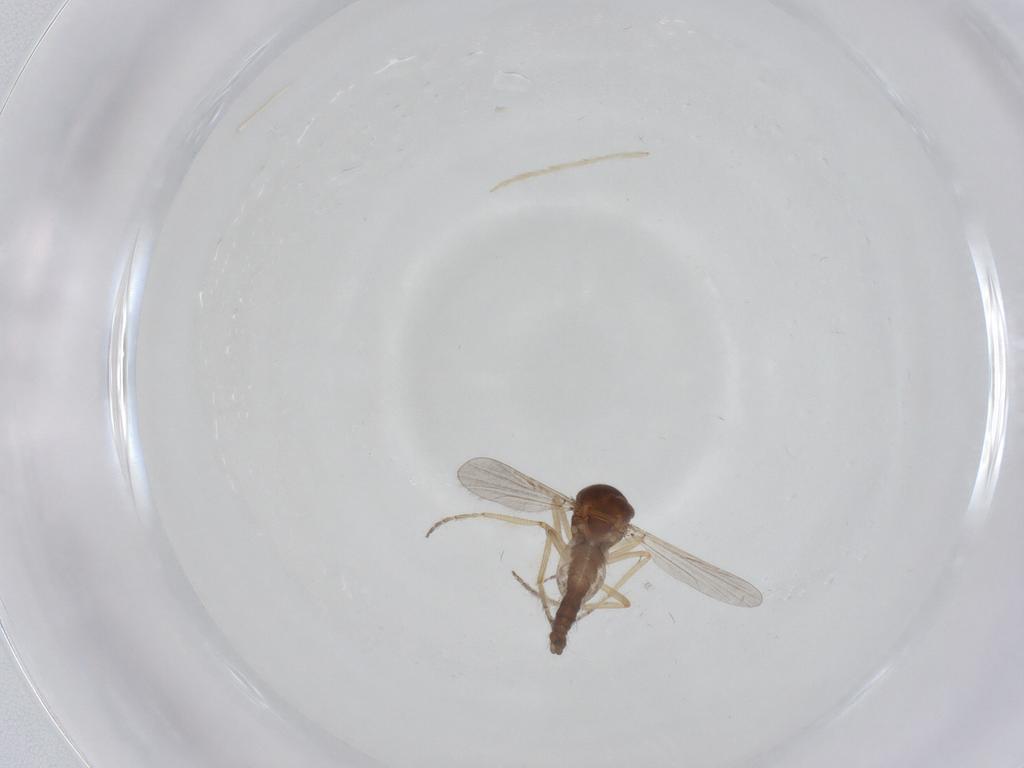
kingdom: Animalia
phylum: Arthropoda
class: Insecta
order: Diptera
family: Ceratopogonidae
